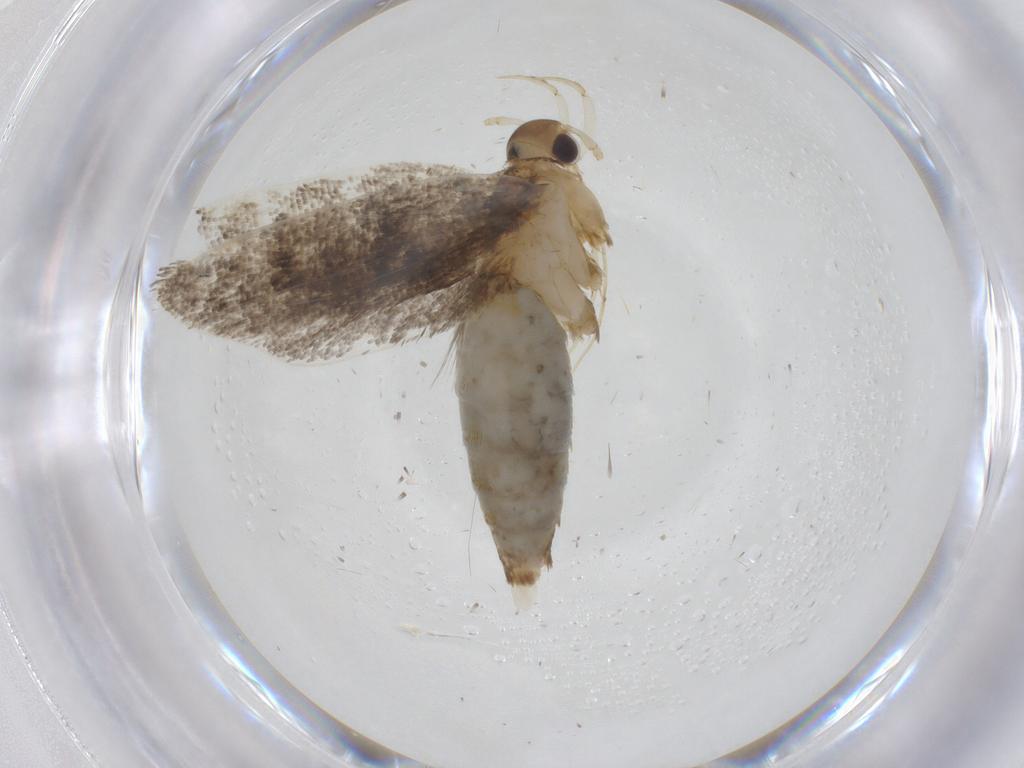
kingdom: Animalia
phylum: Arthropoda
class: Insecta
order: Lepidoptera
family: Lecithoceridae
